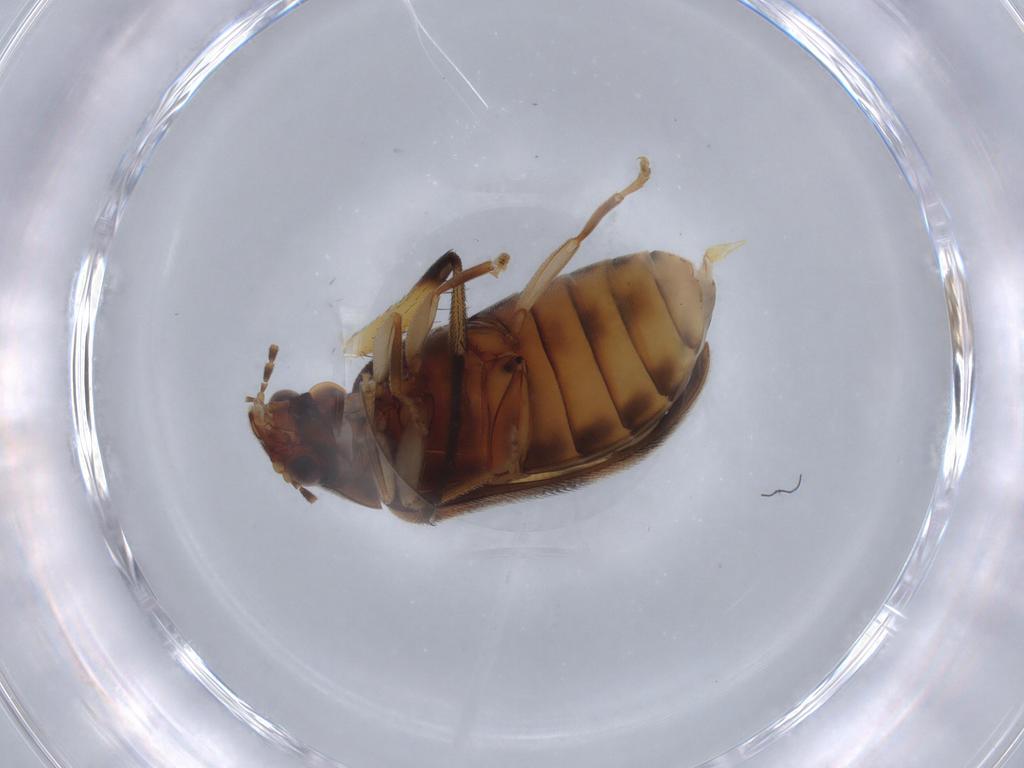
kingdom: Animalia
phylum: Arthropoda
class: Insecta
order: Coleoptera
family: Scirtidae
